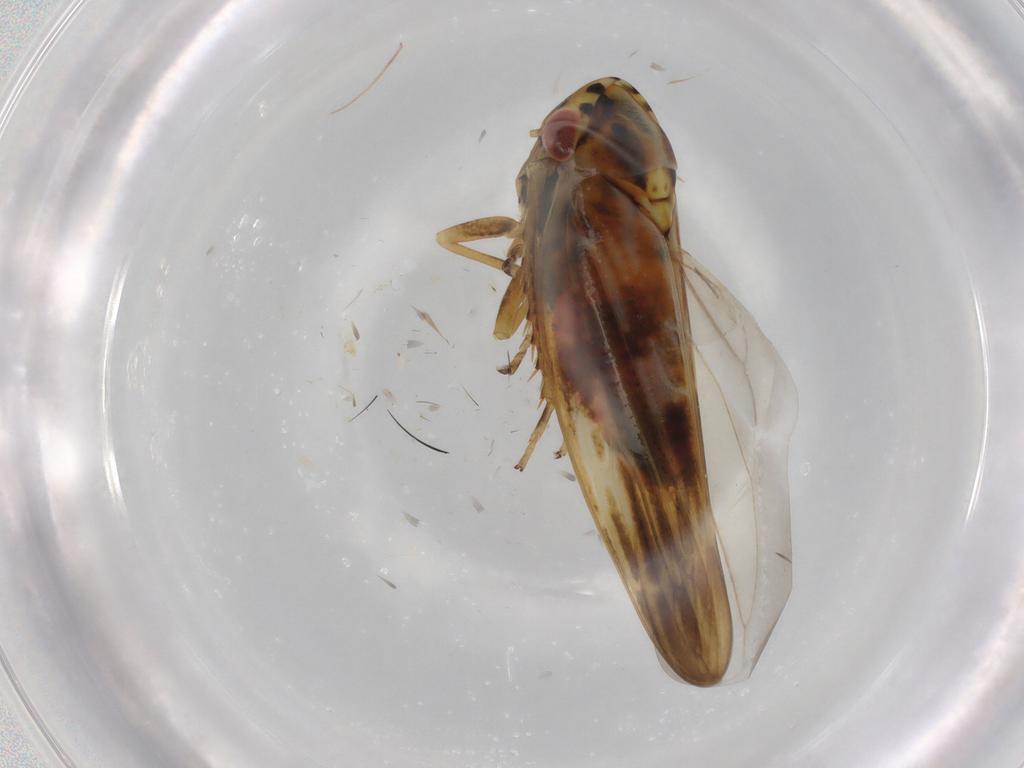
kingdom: Animalia
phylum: Arthropoda
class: Insecta
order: Hemiptera
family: Cicadellidae
